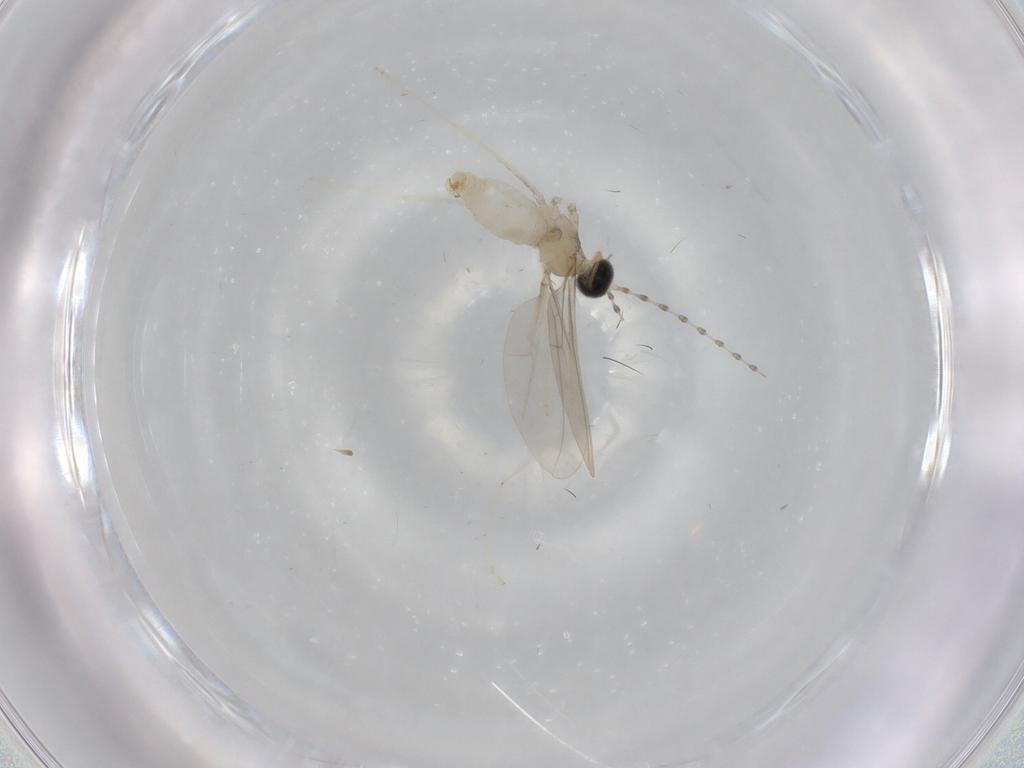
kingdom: Animalia
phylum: Arthropoda
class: Insecta
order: Diptera
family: Cecidomyiidae
